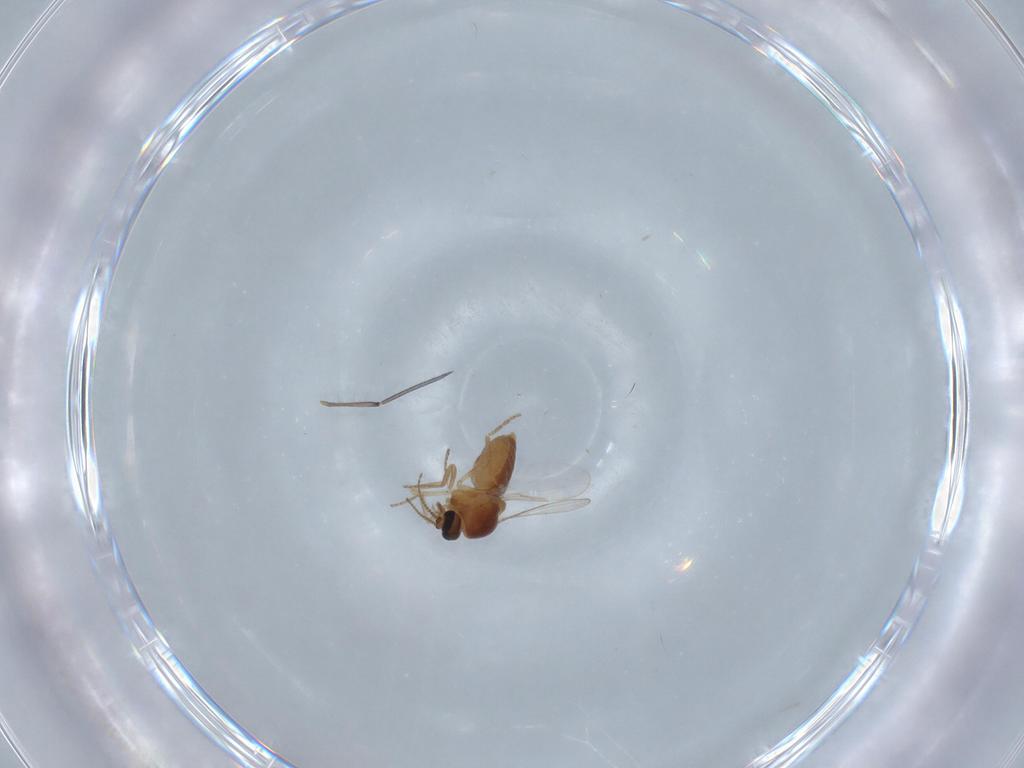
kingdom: Animalia
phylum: Arthropoda
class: Insecta
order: Diptera
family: Ceratopogonidae
